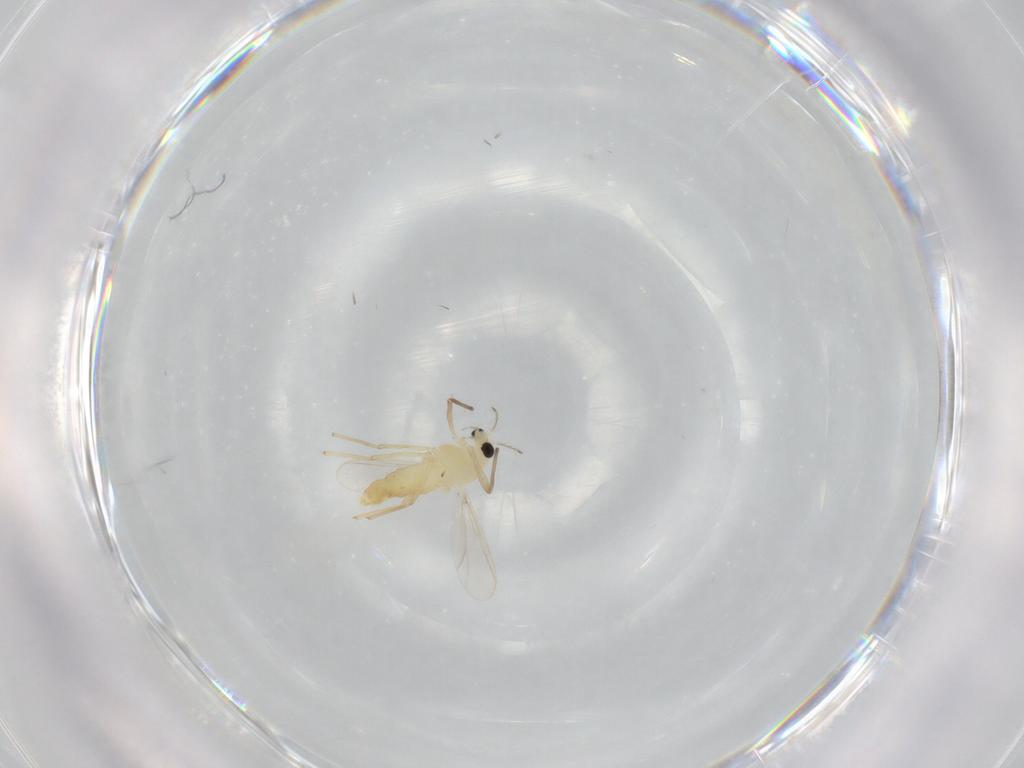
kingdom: Animalia
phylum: Arthropoda
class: Insecta
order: Diptera
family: Chironomidae
